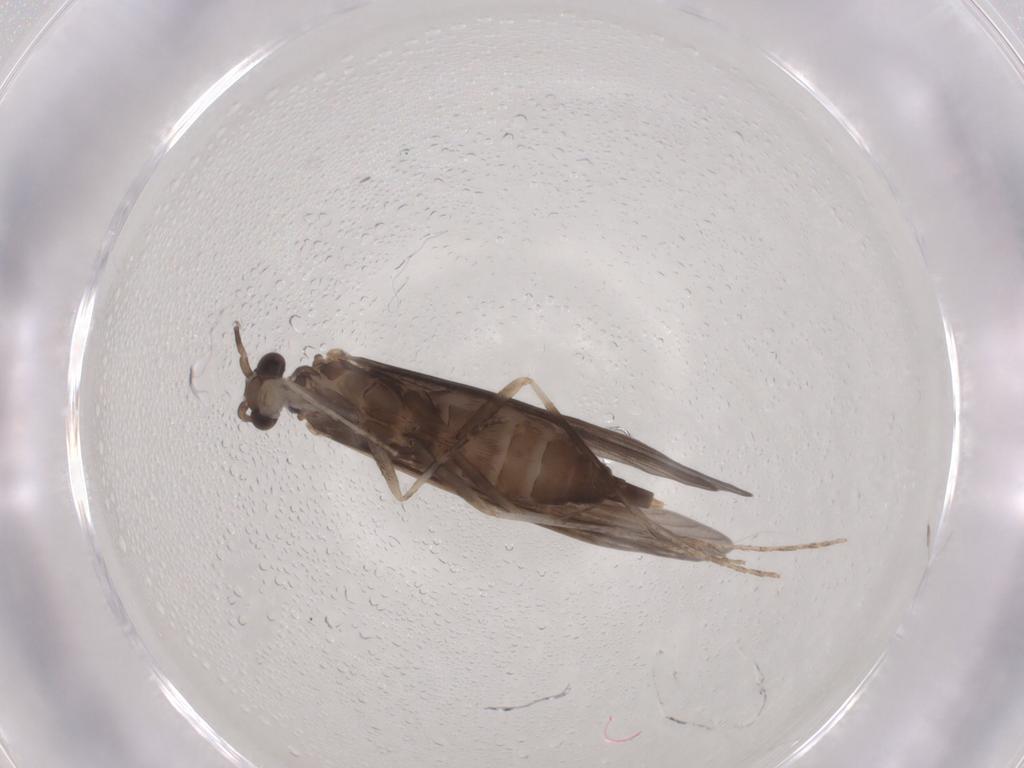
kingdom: Animalia
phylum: Arthropoda
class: Insecta
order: Trichoptera
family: Xiphocentronidae
